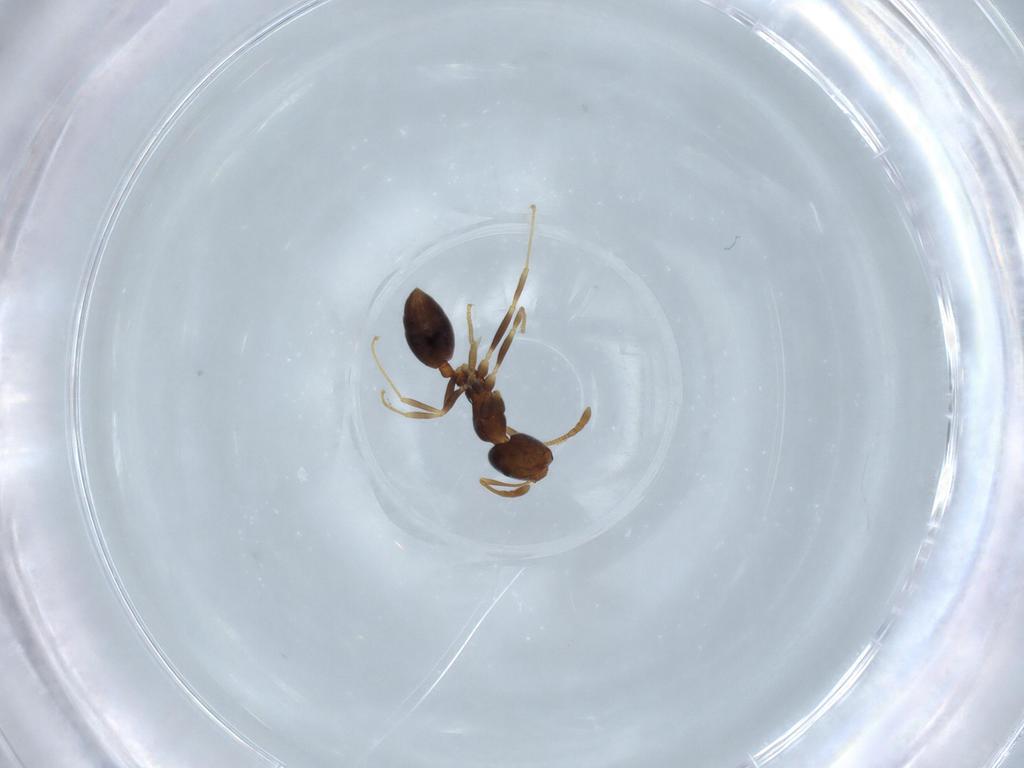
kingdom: Animalia
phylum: Arthropoda
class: Insecta
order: Hymenoptera
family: Formicidae
